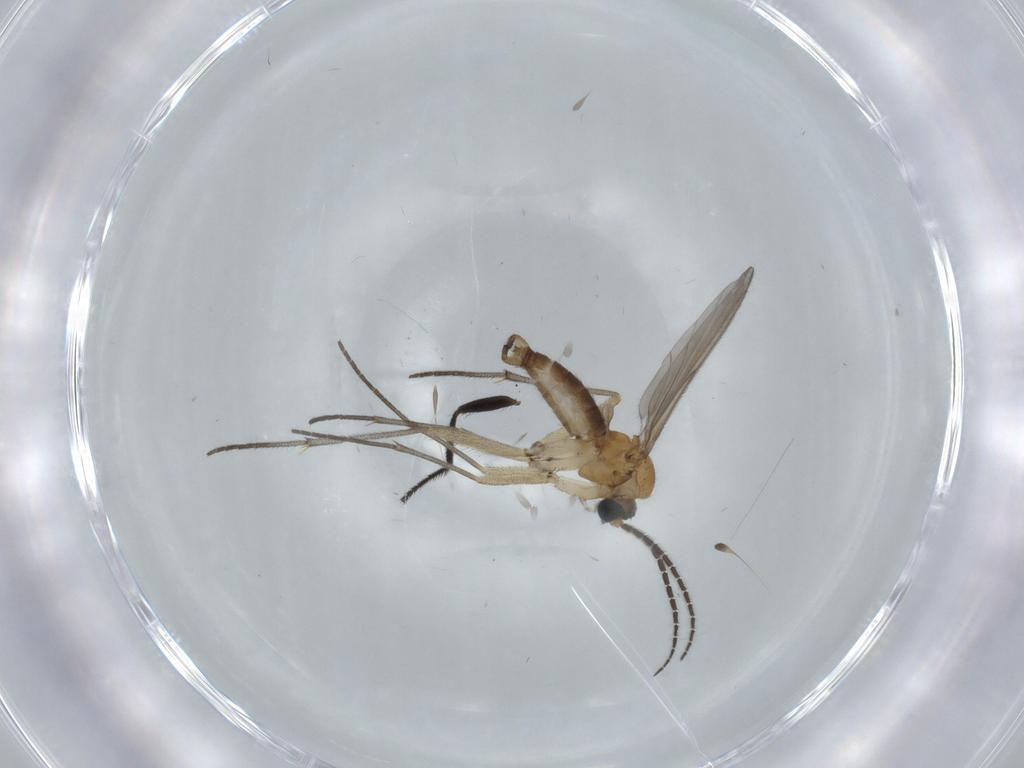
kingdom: Animalia
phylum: Arthropoda
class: Insecta
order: Diptera
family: Sciaridae
